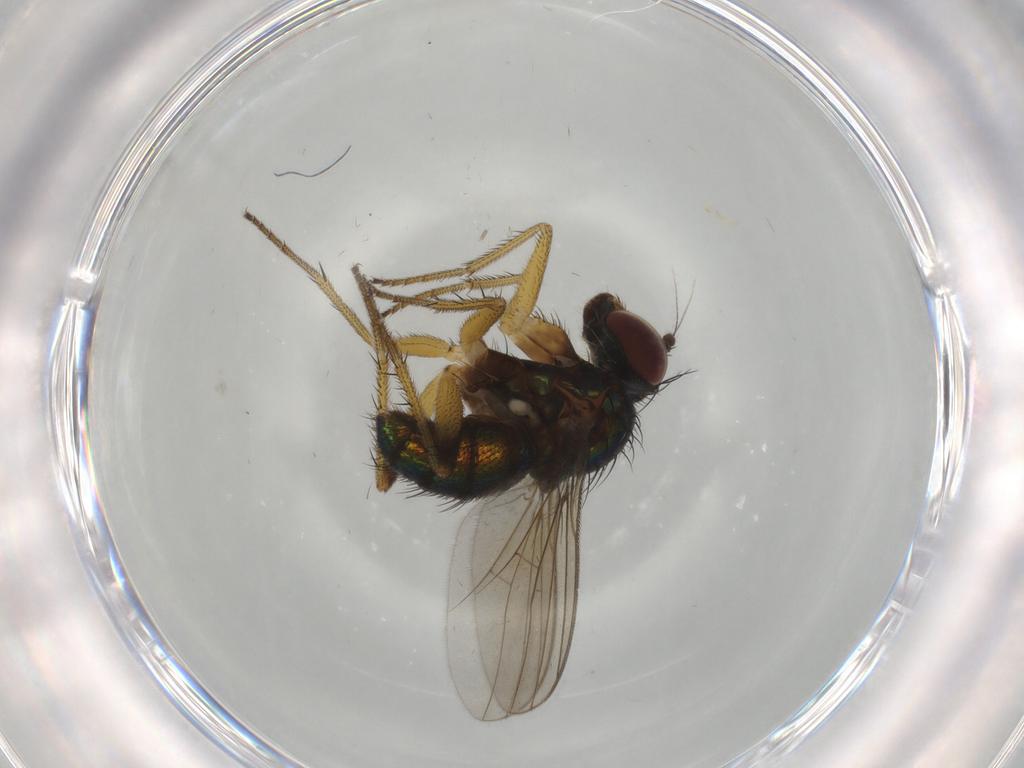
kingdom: Animalia
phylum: Arthropoda
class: Insecta
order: Diptera
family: Dolichopodidae
